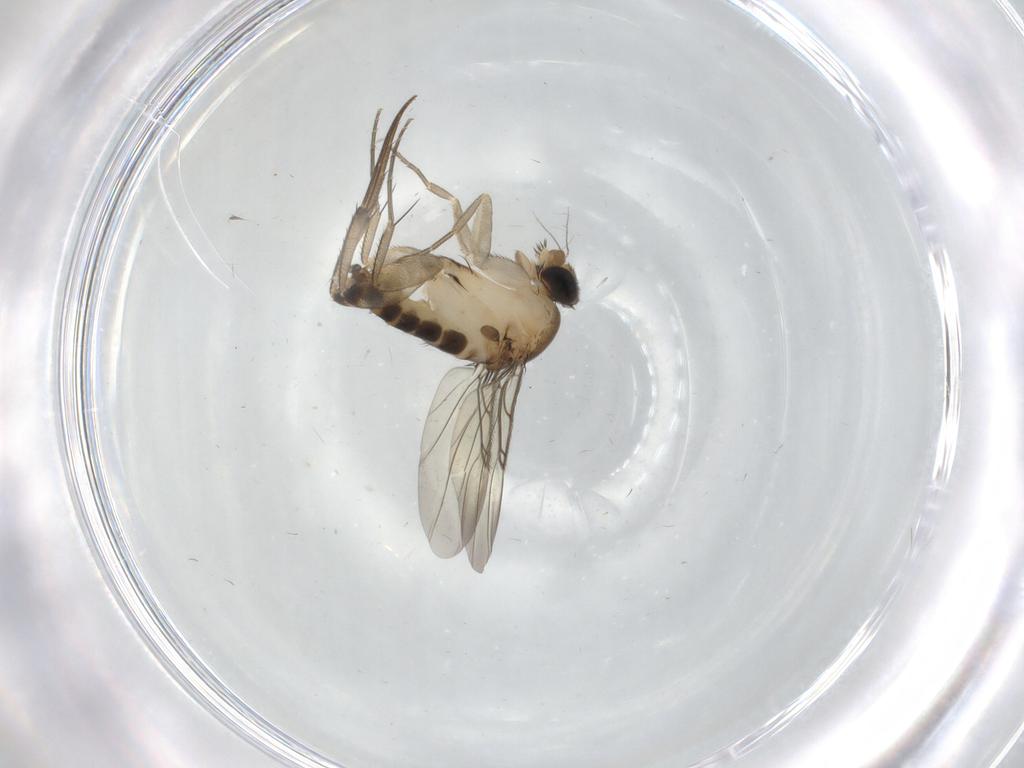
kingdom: Animalia
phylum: Arthropoda
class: Insecta
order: Diptera
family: Phoridae
